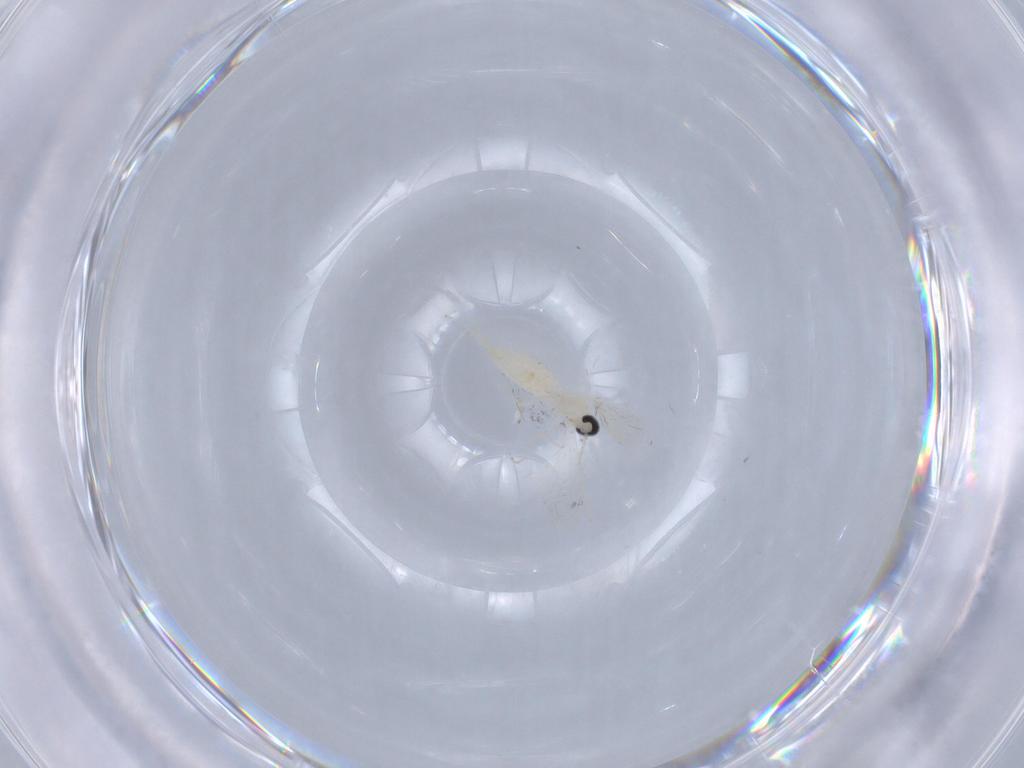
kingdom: Animalia
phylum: Arthropoda
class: Insecta
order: Diptera
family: Cecidomyiidae
